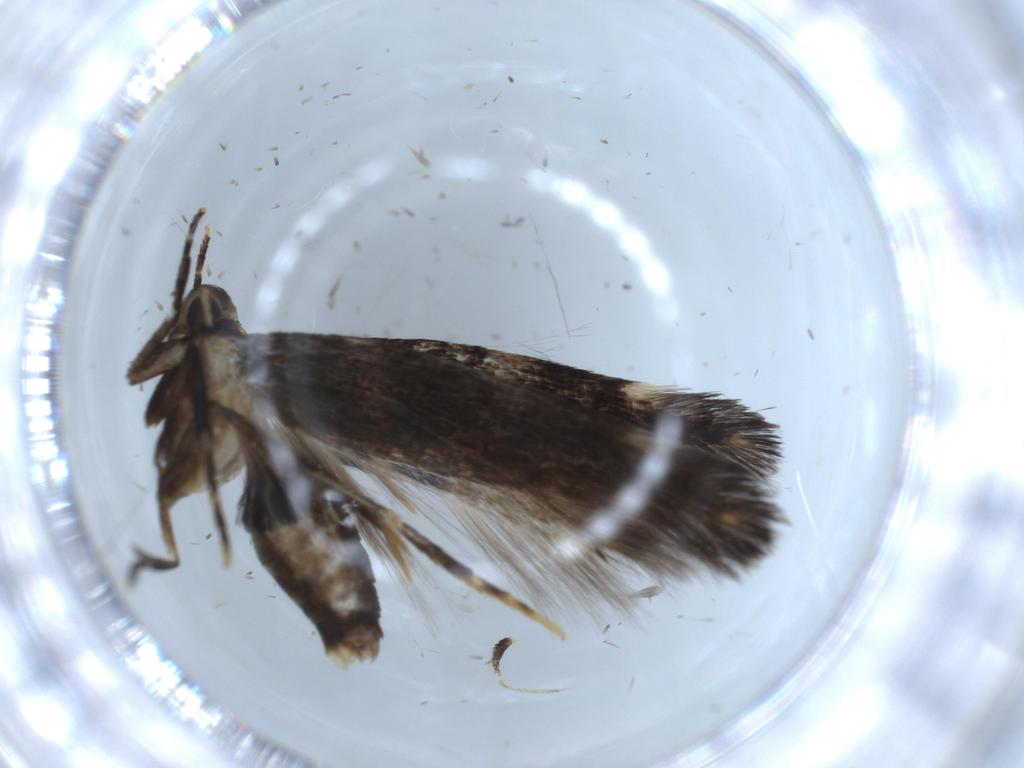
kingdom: Animalia
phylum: Arthropoda
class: Insecta
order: Lepidoptera
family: Cosmopterigidae
